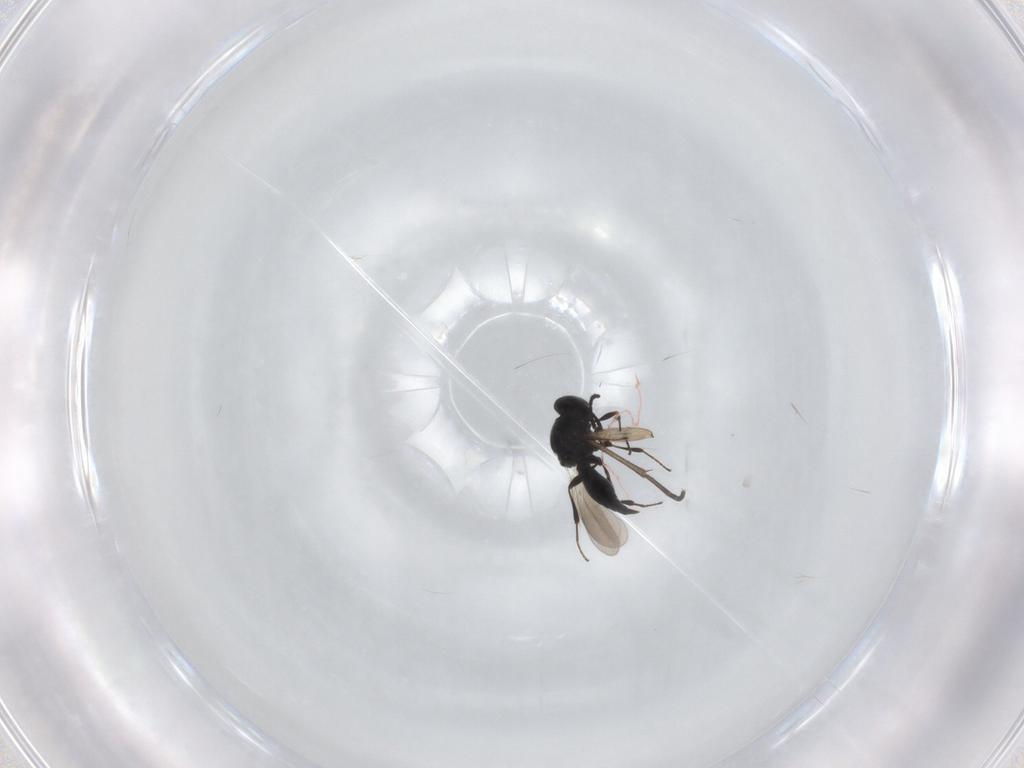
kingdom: Animalia
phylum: Arthropoda
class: Insecta
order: Hymenoptera
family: Platygastridae
